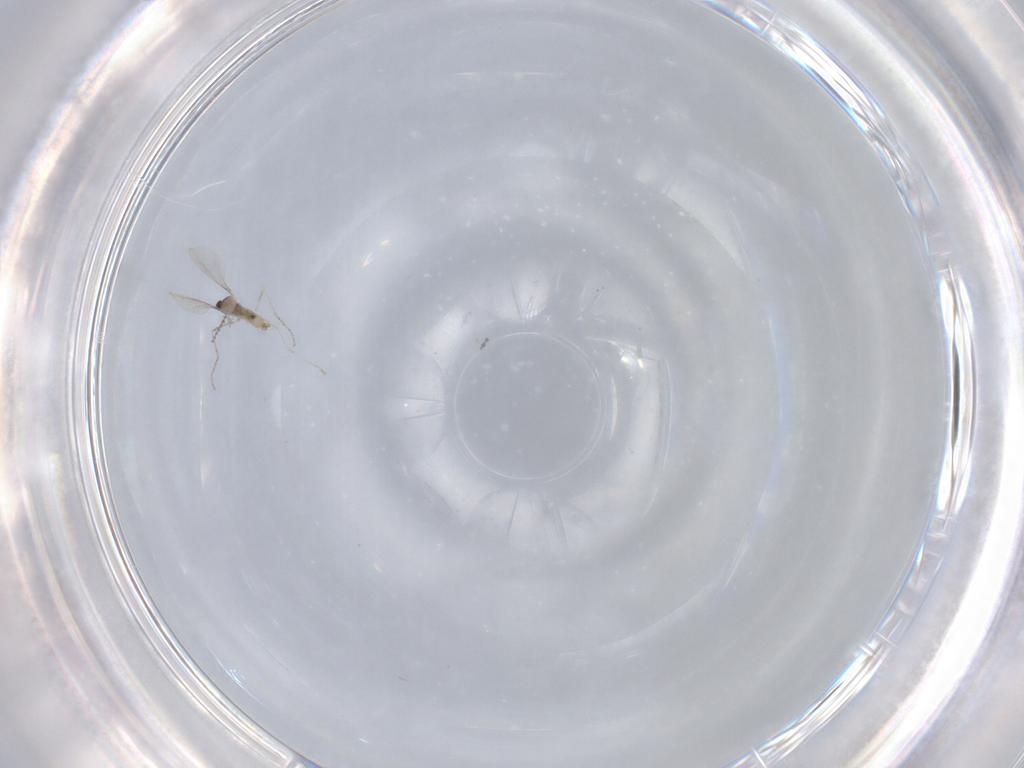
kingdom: Animalia
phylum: Arthropoda
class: Insecta
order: Diptera
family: Cecidomyiidae
